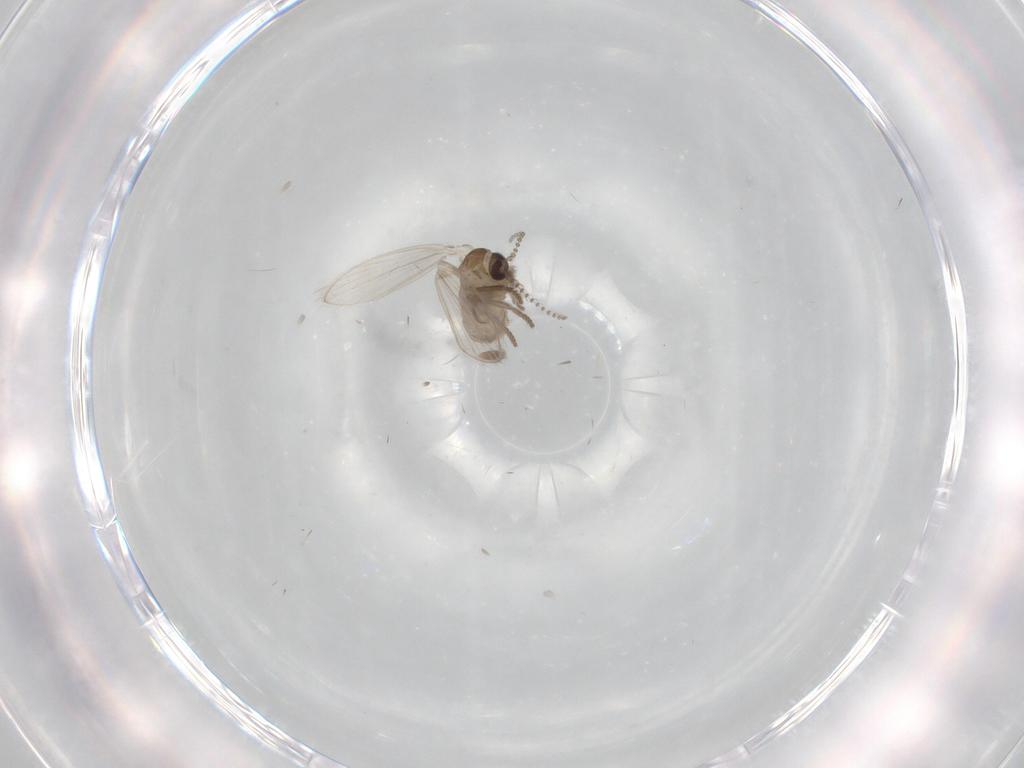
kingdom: Animalia
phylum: Arthropoda
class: Insecta
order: Diptera
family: Psychodidae
